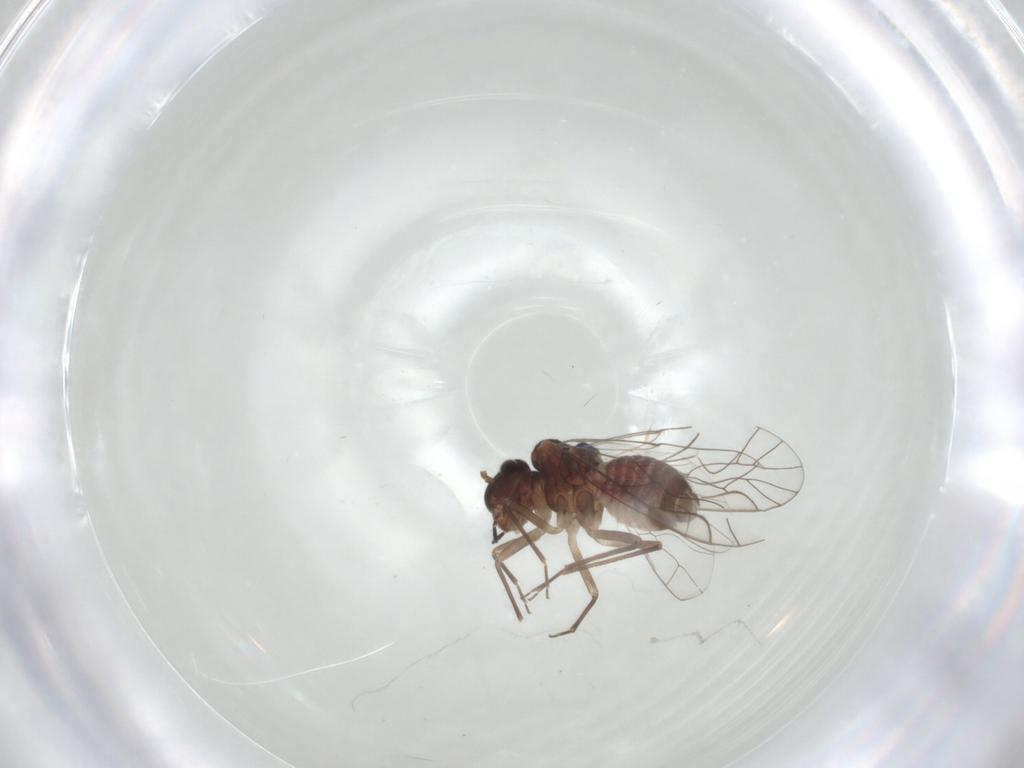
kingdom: Animalia
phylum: Arthropoda
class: Insecta
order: Psocodea
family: Lachesillidae
